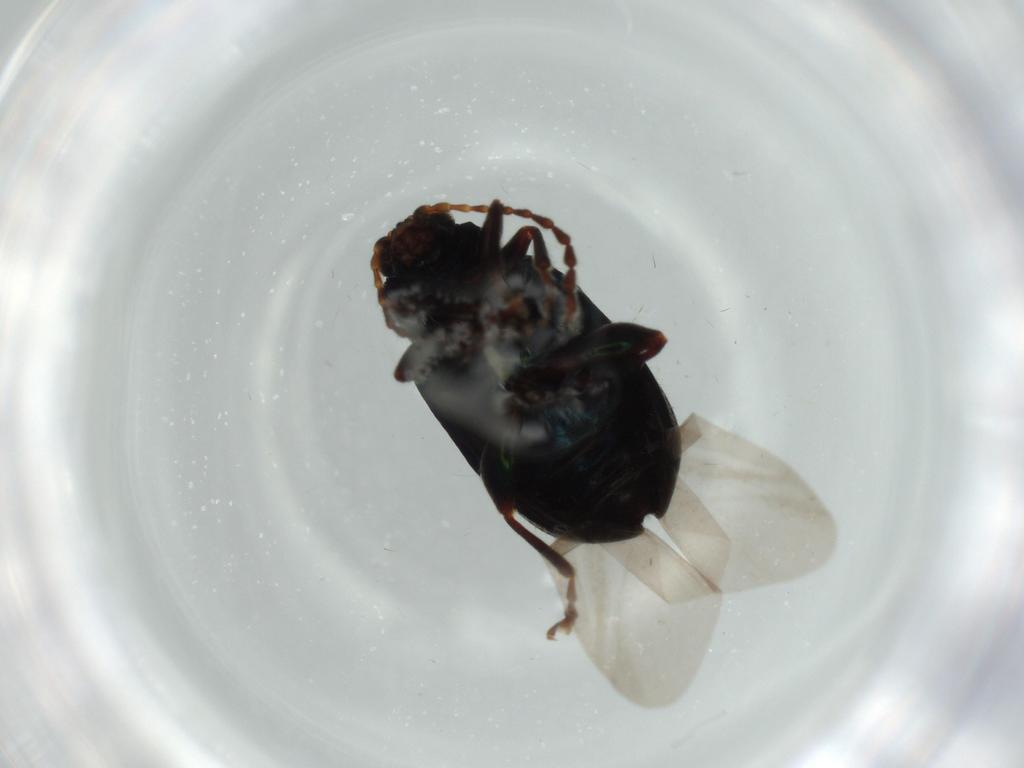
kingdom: Animalia
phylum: Arthropoda
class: Insecta
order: Coleoptera
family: Chrysomelidae
